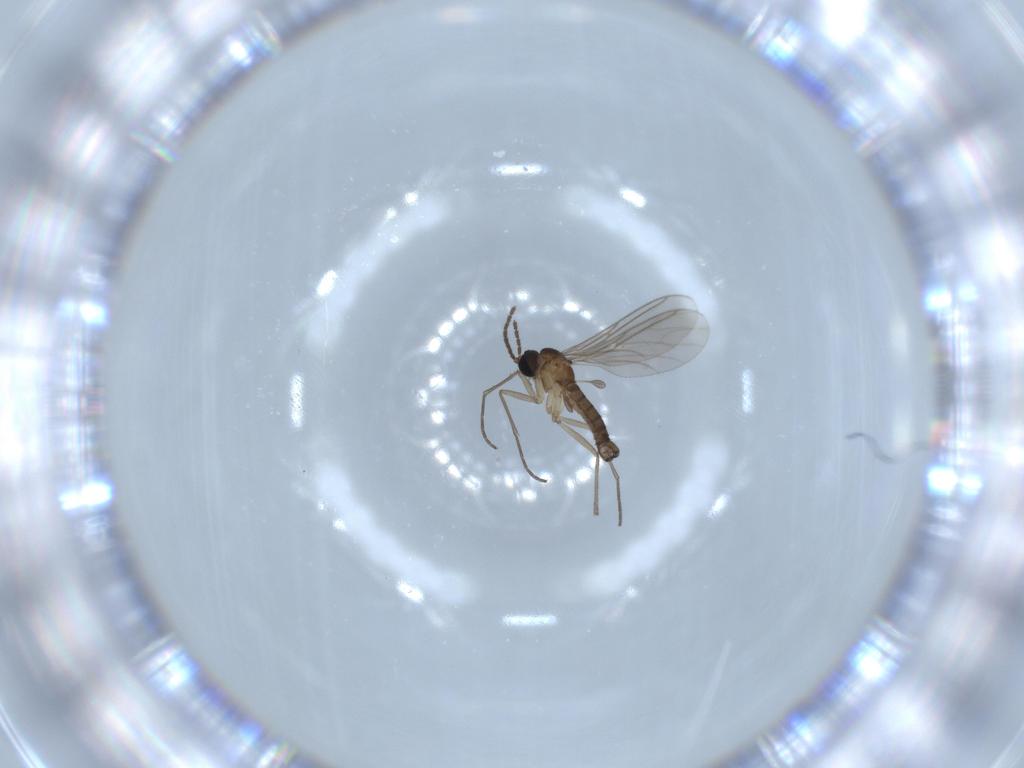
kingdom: Animalia
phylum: Arthropoda
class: Insecta
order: Diptera
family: Sciaridae
